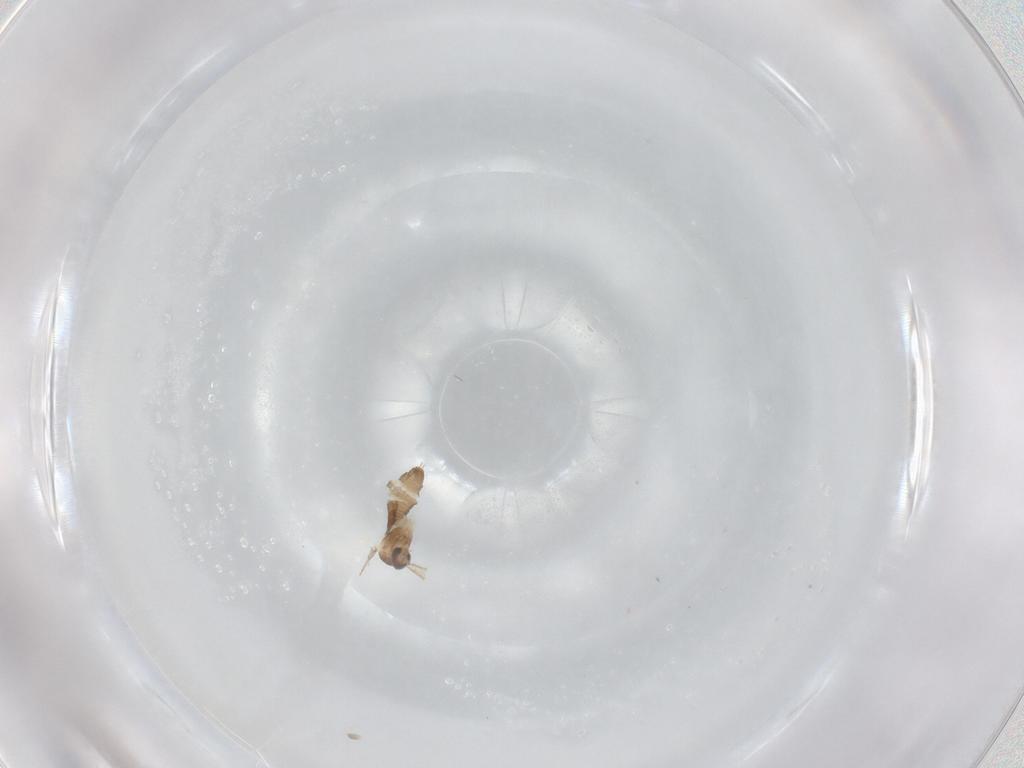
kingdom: Animalia
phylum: Arthropoda
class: Insecta
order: Diptera
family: Cecidomyiidae
